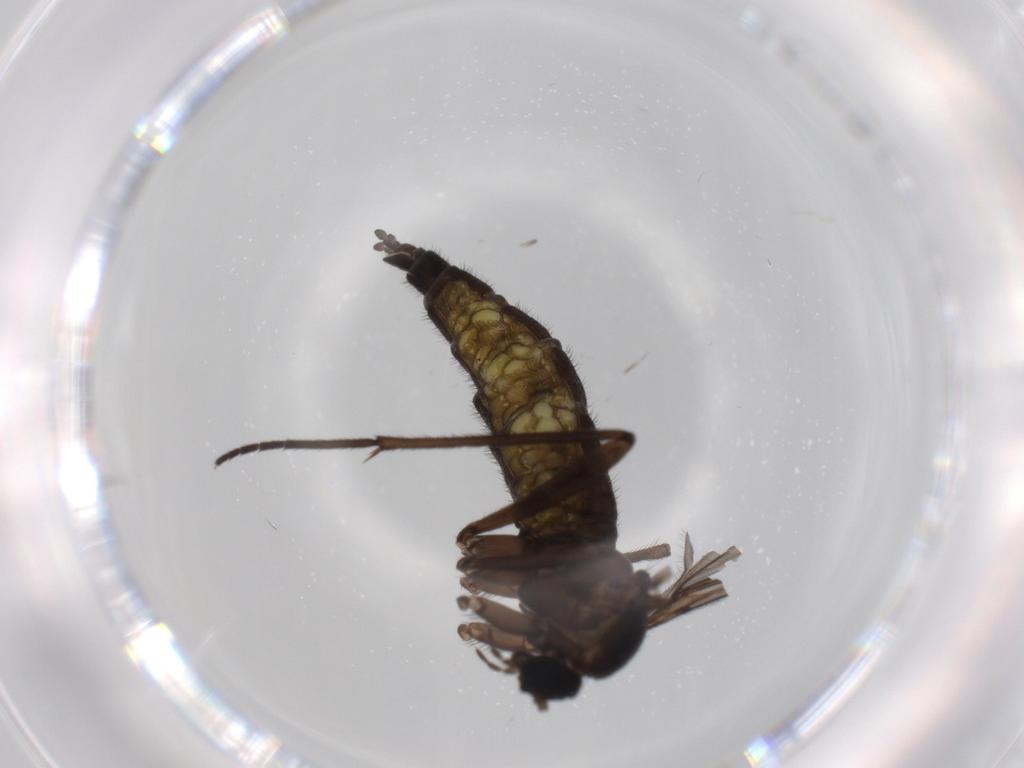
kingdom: Animalia
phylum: Arthropoda
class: Insecta
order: Diptera
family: Sciaridae
